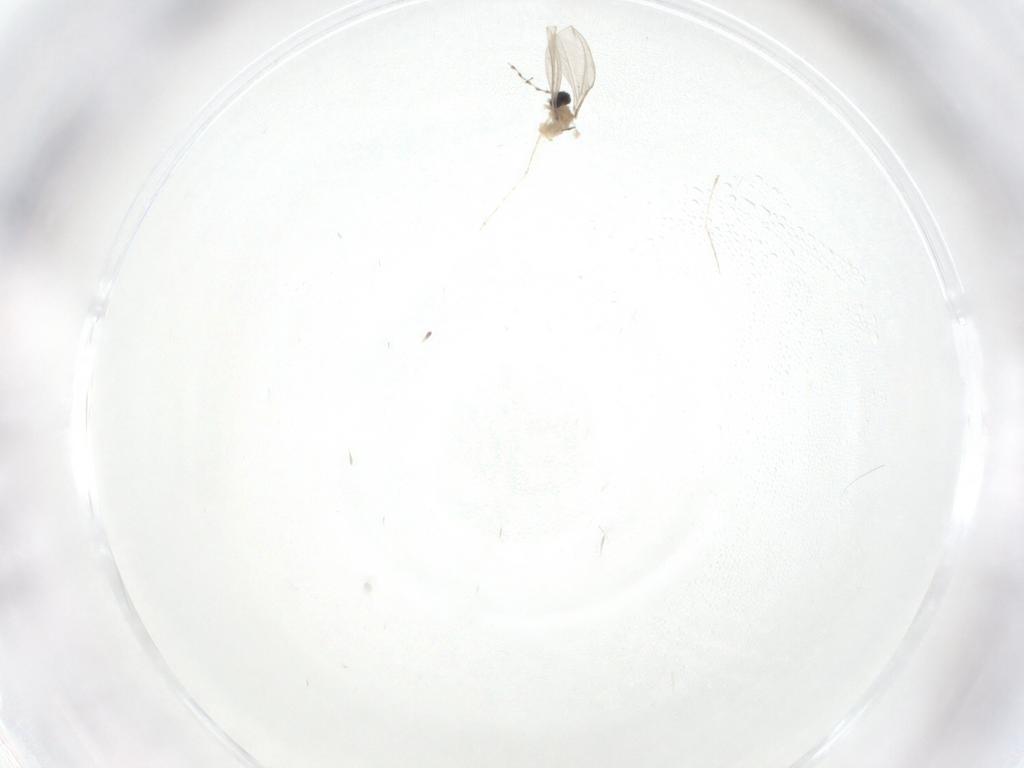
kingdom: Animalia
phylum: Arthropoda
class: Insecta
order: Diptera
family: Cecidomyiidae
